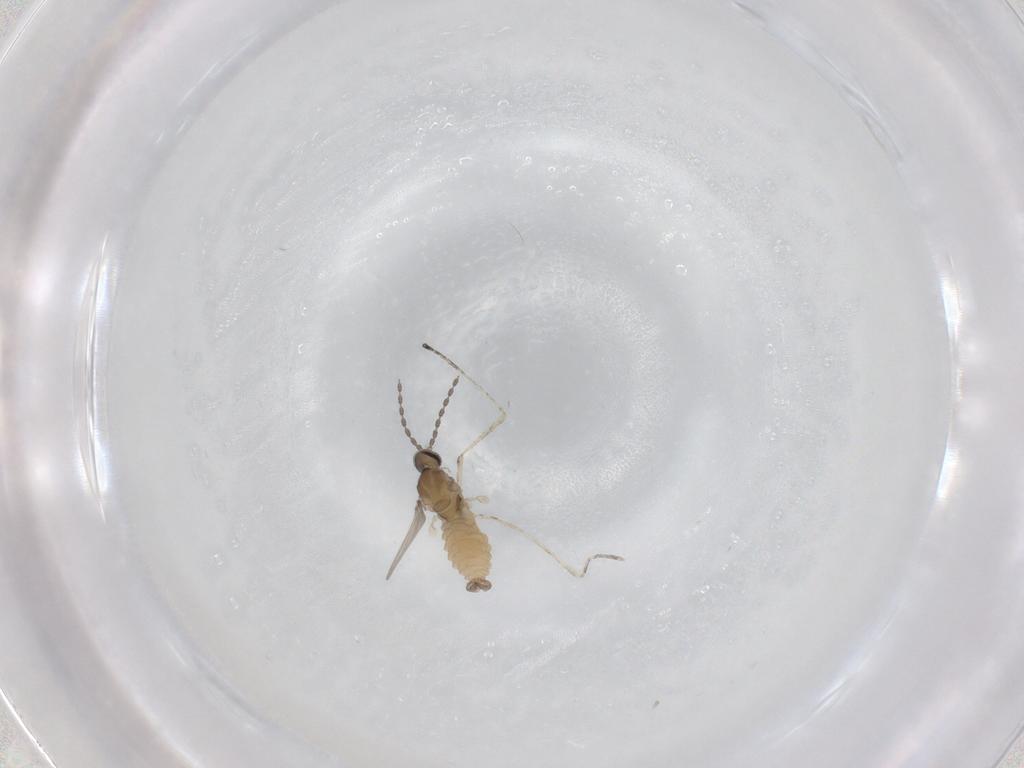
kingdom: Animalia
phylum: Arthropoda
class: Insecta
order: Diptera
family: Cecidomyiidae
